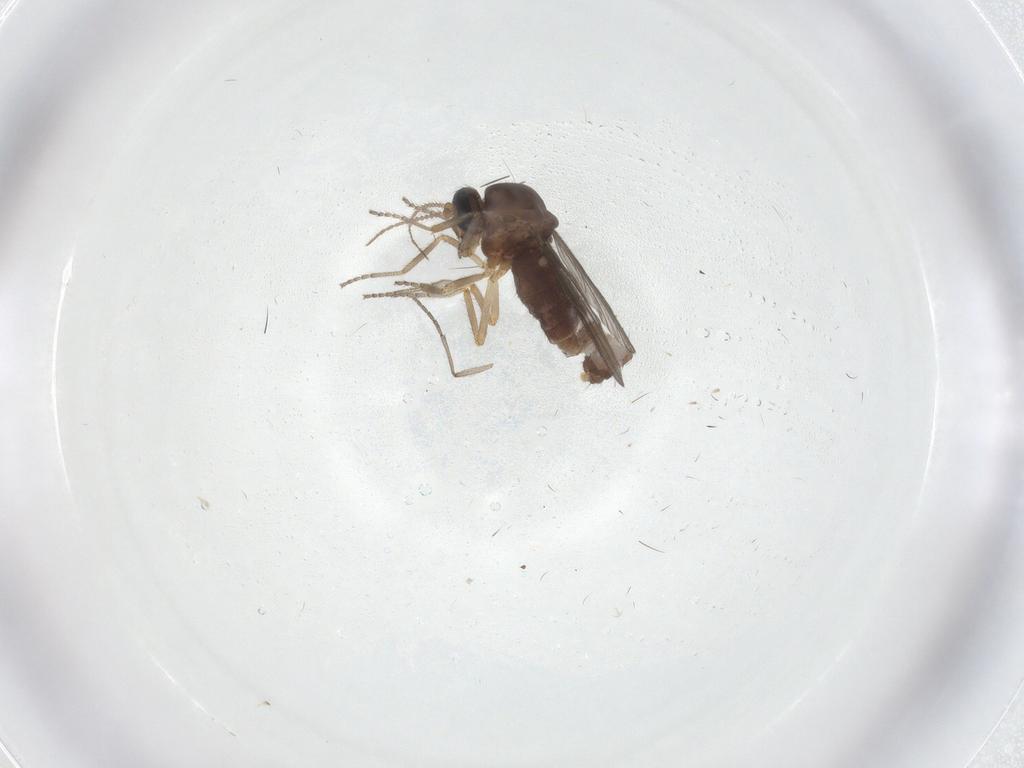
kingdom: Animalia
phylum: Arthropoda
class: Insecta
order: Diptera
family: Ceratopogonidae
